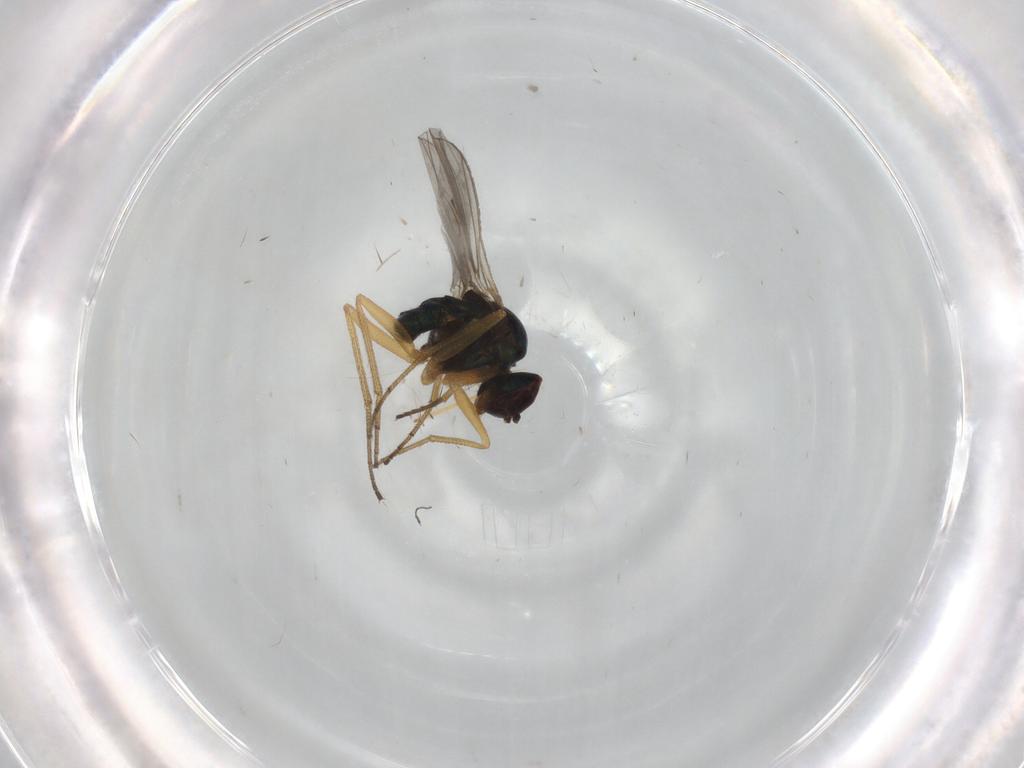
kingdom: Animalia
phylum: Arthropoda
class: Insecta
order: Diptera
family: Dolichopodidae
